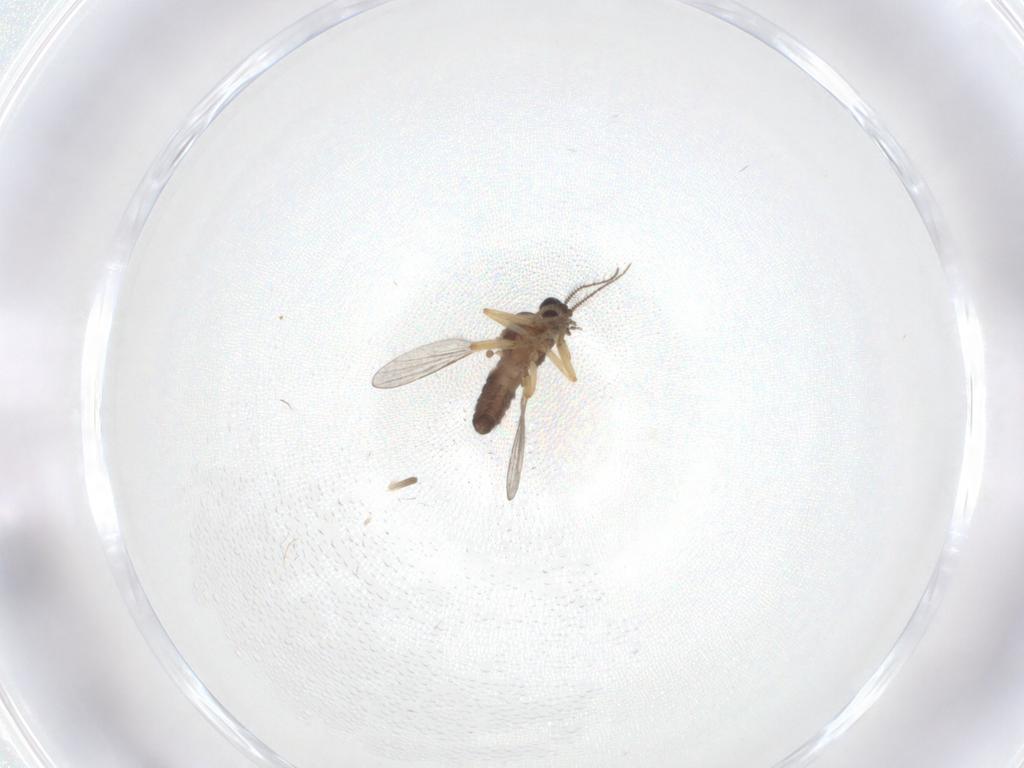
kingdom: Animalia
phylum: Arthropoda
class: Insecta
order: Diptera
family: Ceratopogonidae
